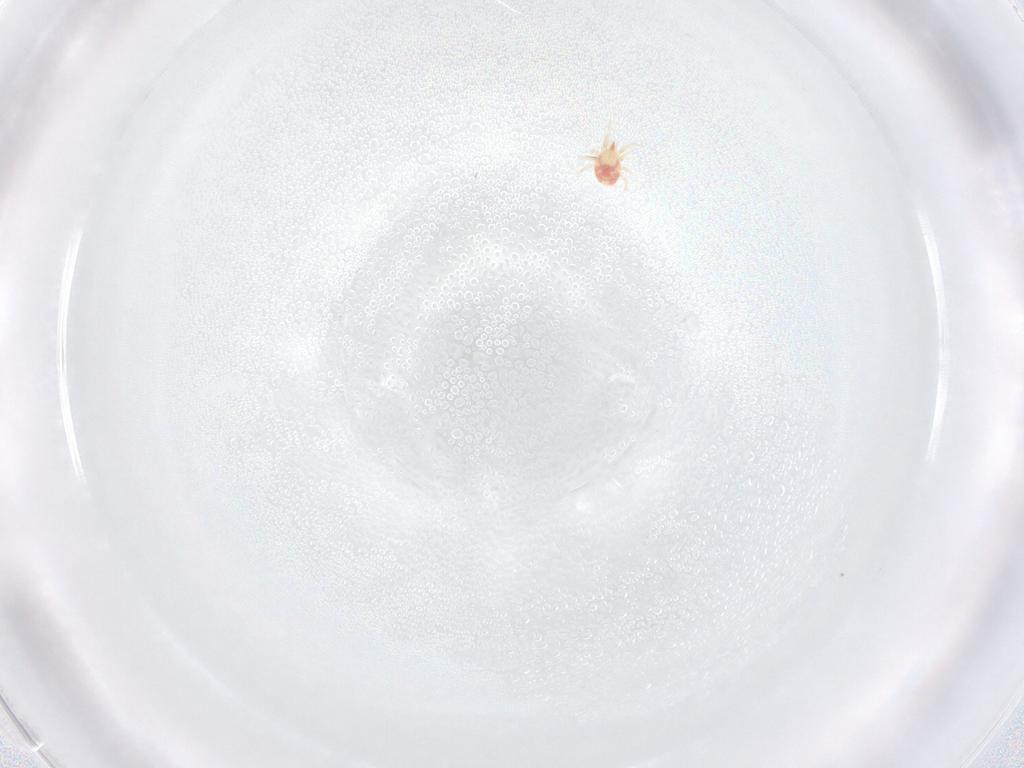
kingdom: Animalia
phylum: Arthropoda
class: Arachnida
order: Mesostigmata
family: Phytoseiidae
